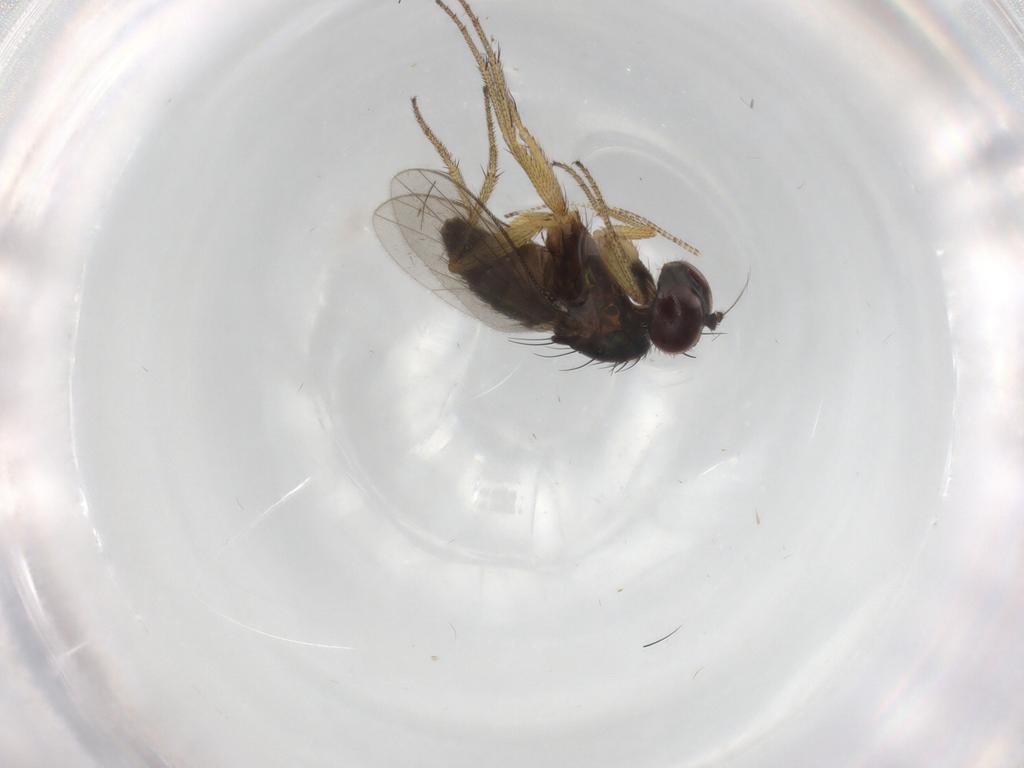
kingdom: Animalia
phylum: Arthropoda
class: Insecta
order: Diptera
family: Dolichopodidae
